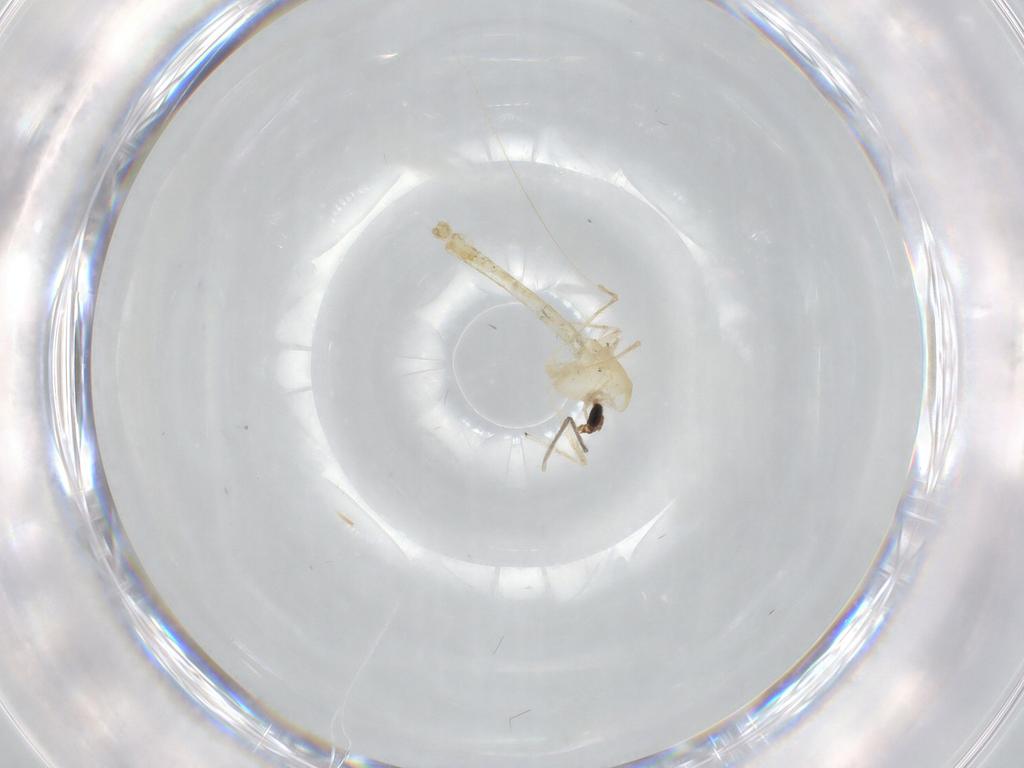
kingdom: Animalia
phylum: Arthropoda
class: Insecta
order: Diptera
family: Chironomidae
